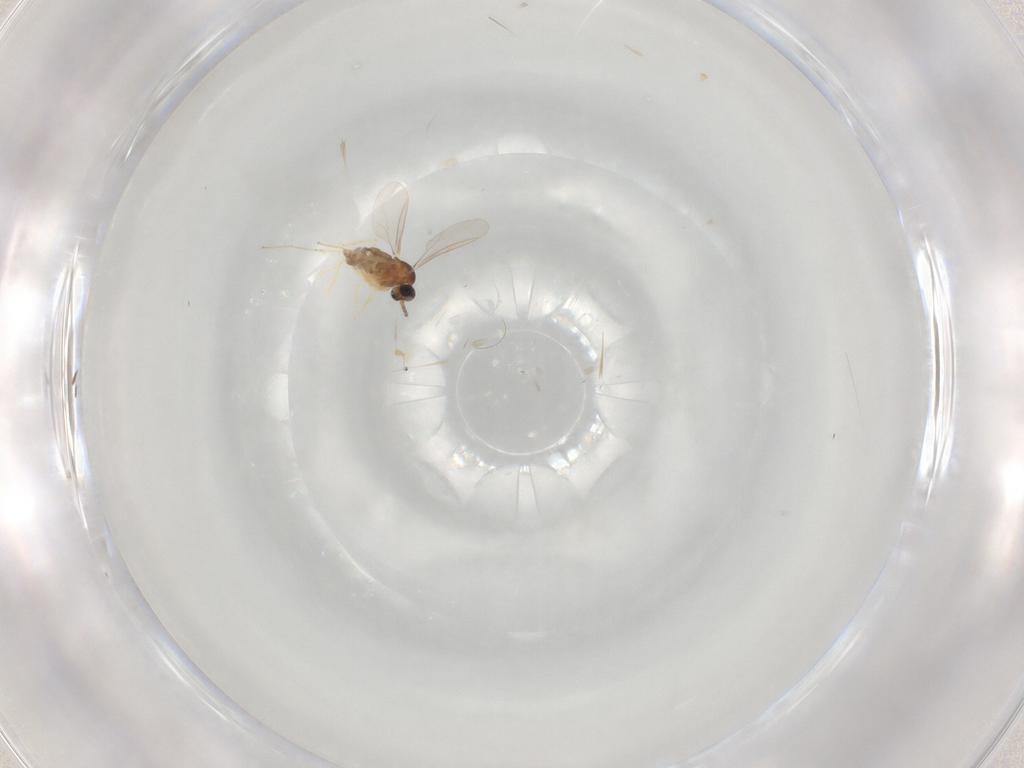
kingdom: Animalia
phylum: Arthropoda
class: Insecta
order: Diptera
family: Cecidomyiidae
